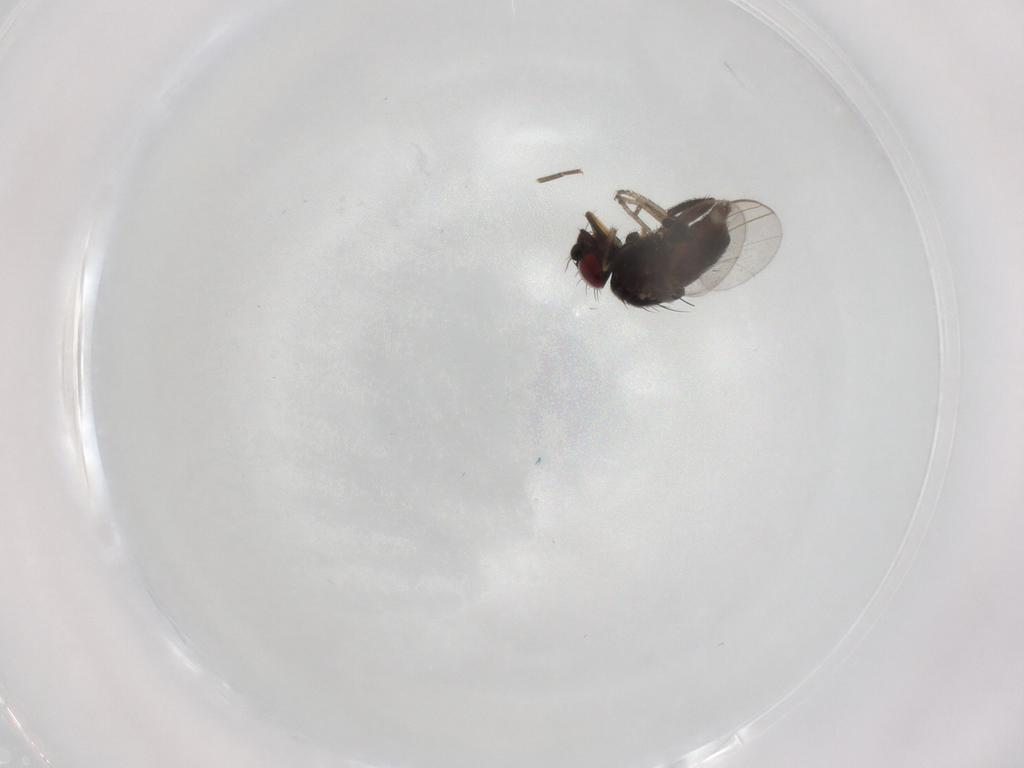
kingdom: Animalia
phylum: Arthropoda
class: Insecta
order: Diptera
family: Milichiidae
